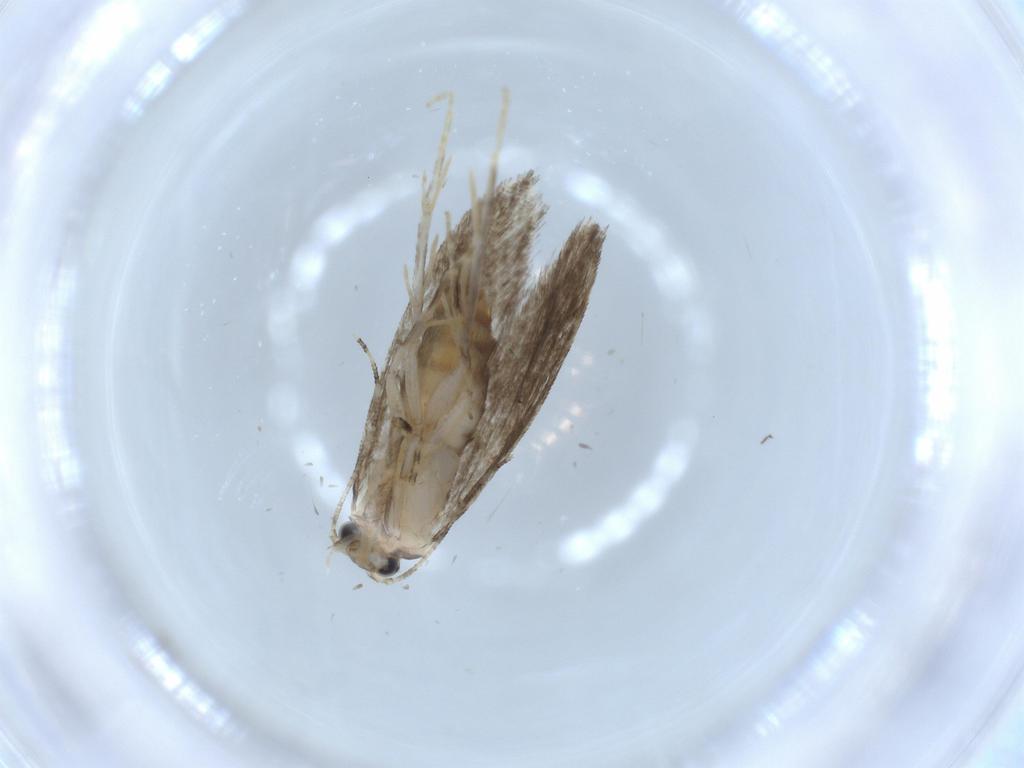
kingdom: Animalia
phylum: Arthropoda
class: Insecta
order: Lepidoptera
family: Tineidae
